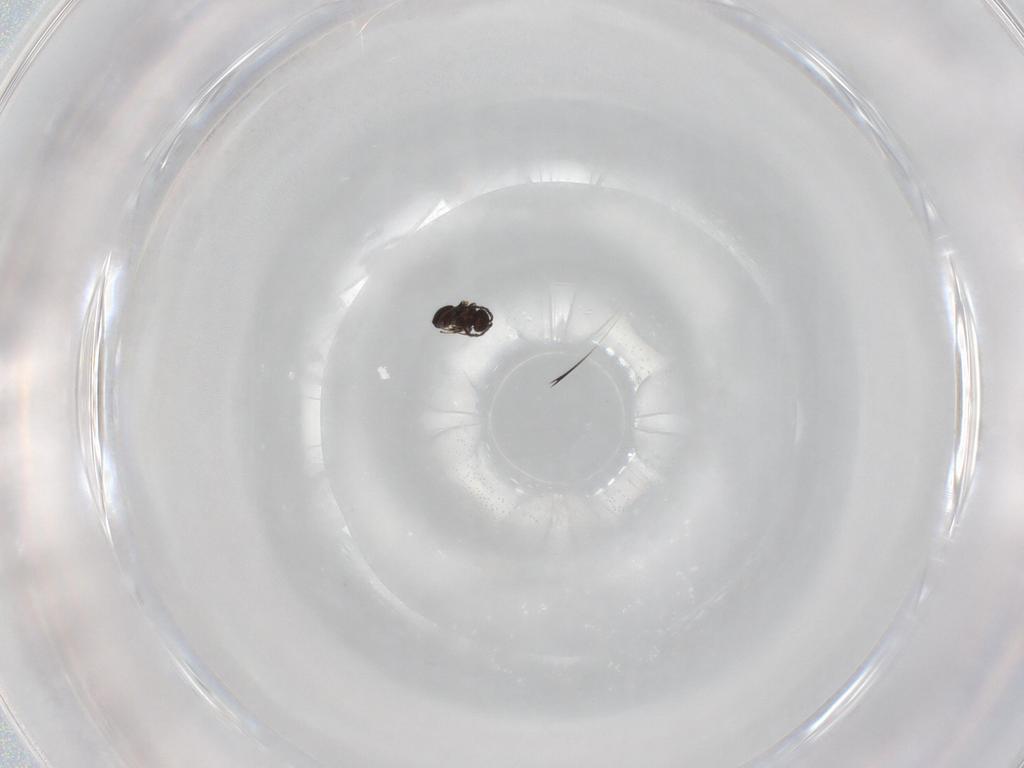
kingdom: Animalia
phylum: Arthropoda
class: Insecta
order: Hymenoptera
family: Scelionidae
